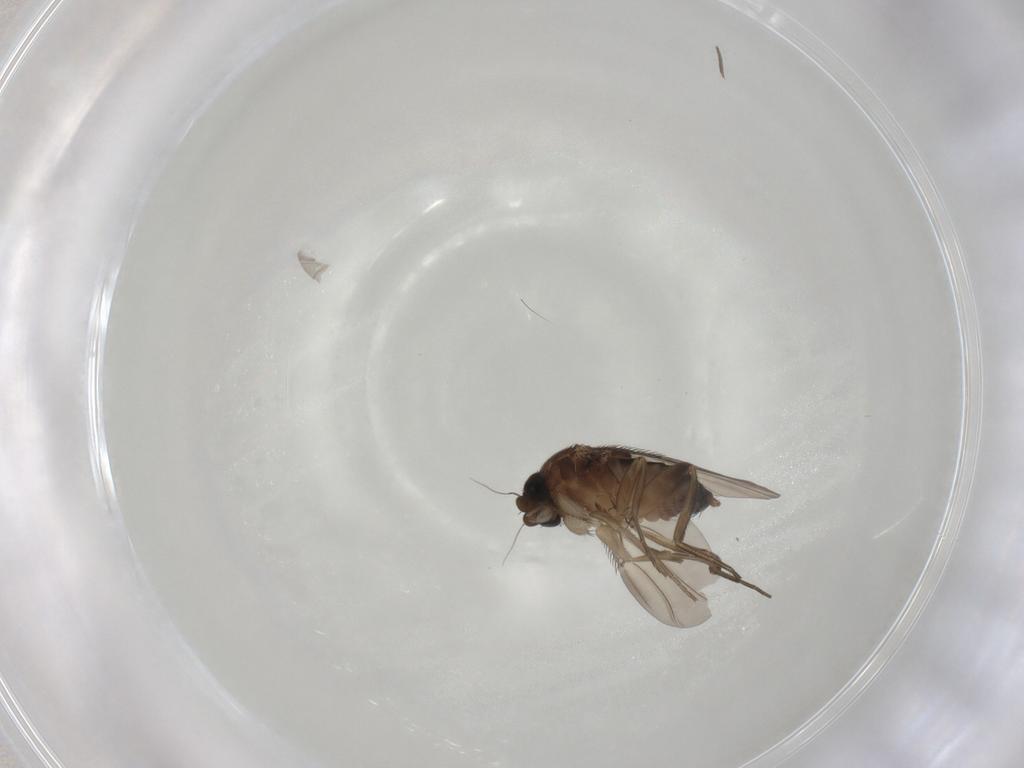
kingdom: Animalia
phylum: Arthropoda
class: Insecta
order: Diptera
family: Phoridae
